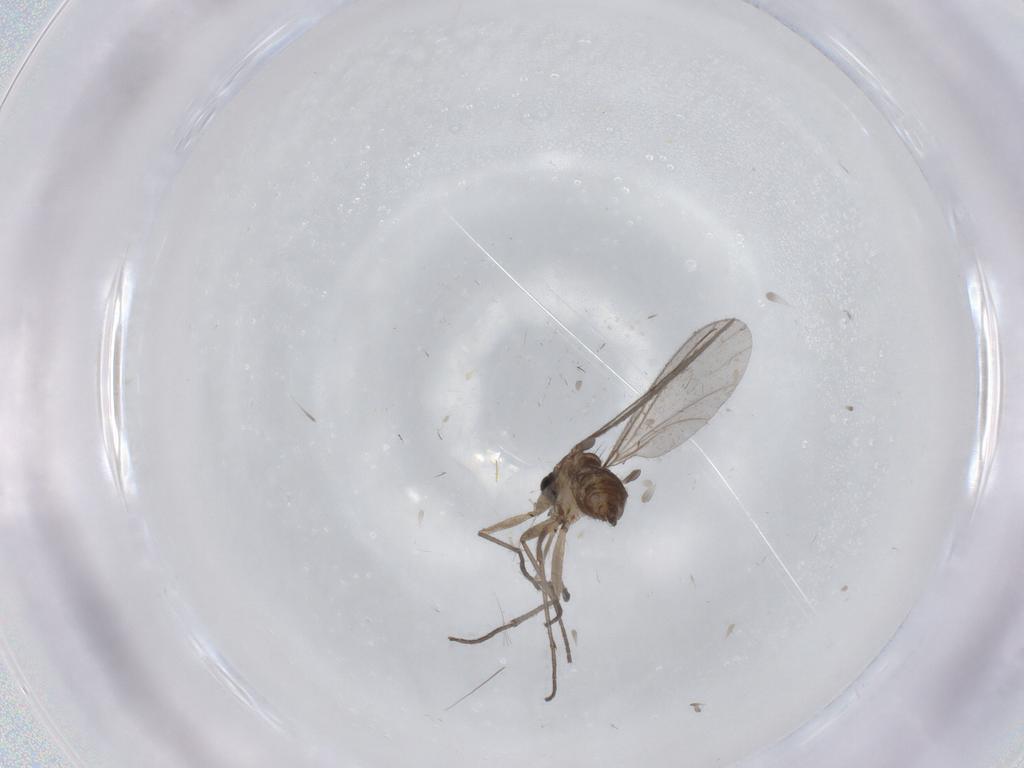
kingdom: Animalia
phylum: Arthropoda
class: Insecta
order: Diptera
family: Sciaridae
